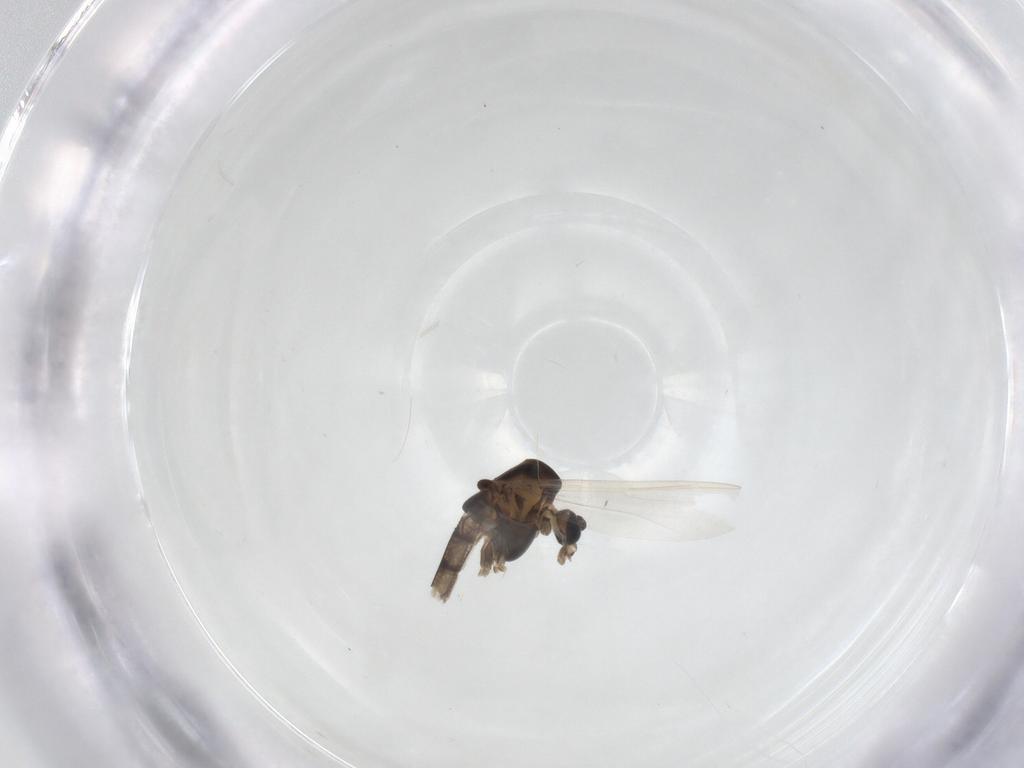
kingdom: Animalia
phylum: Arthropoda
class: Insecta
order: Diptera
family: Chironomidae
